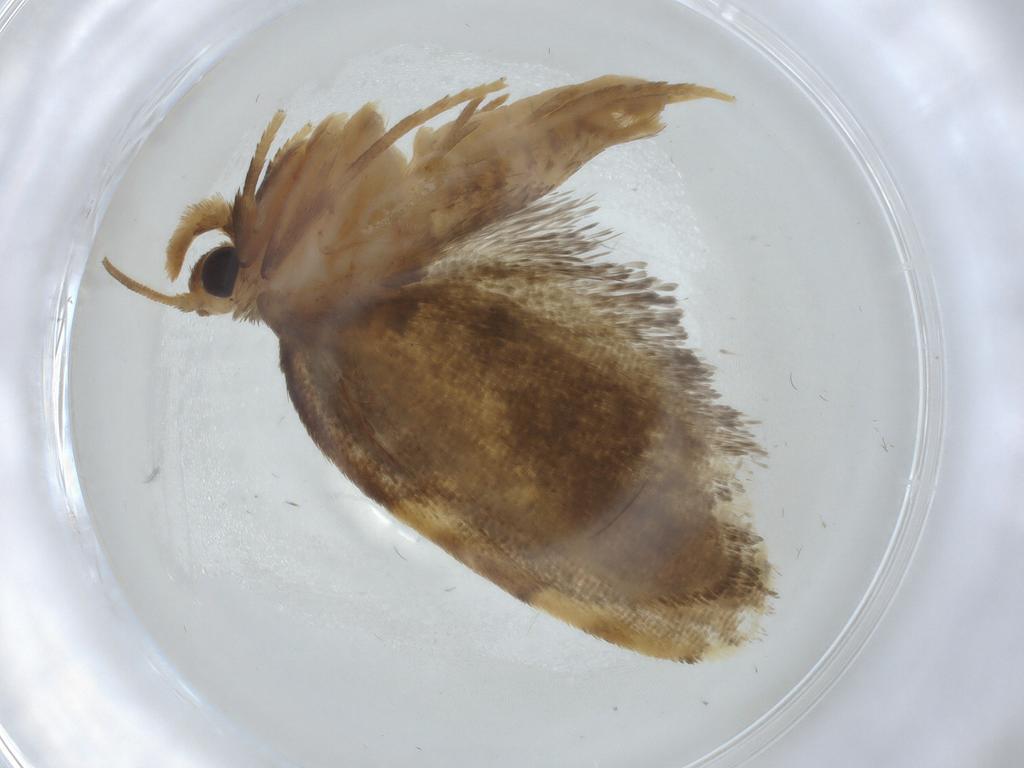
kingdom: Animalia
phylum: Arthropoda
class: Insecta
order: Lepidoptera
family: Psychidae
